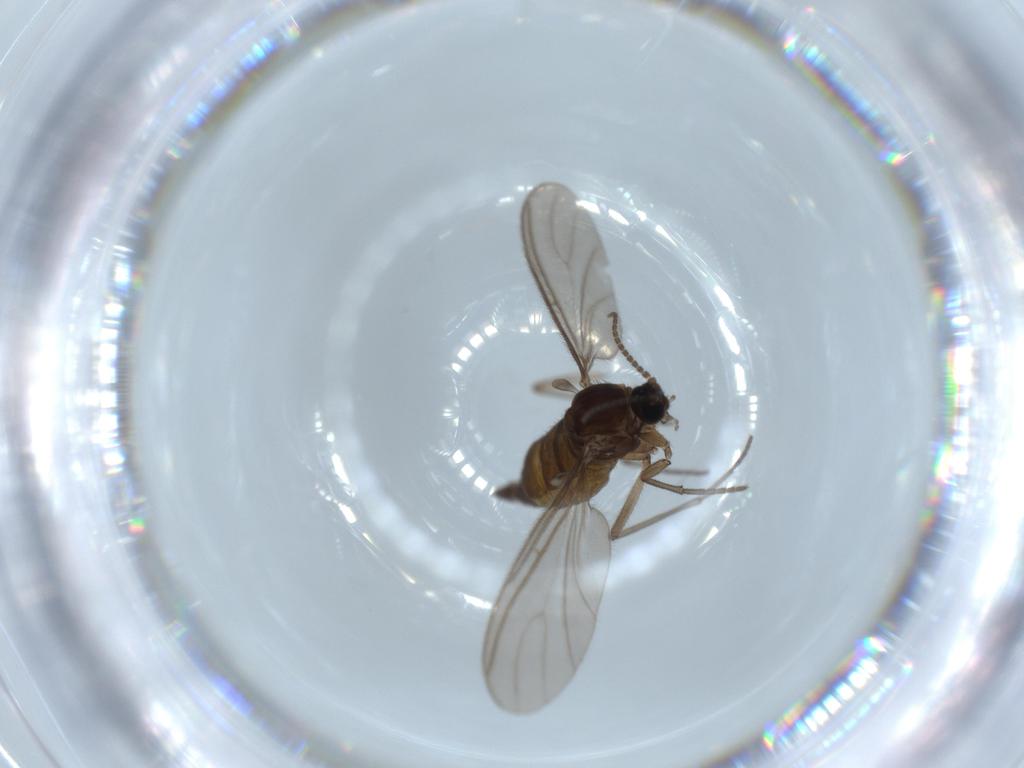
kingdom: Animalia
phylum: Arthropoda
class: Insecta
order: Diptera
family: Sciaridae
